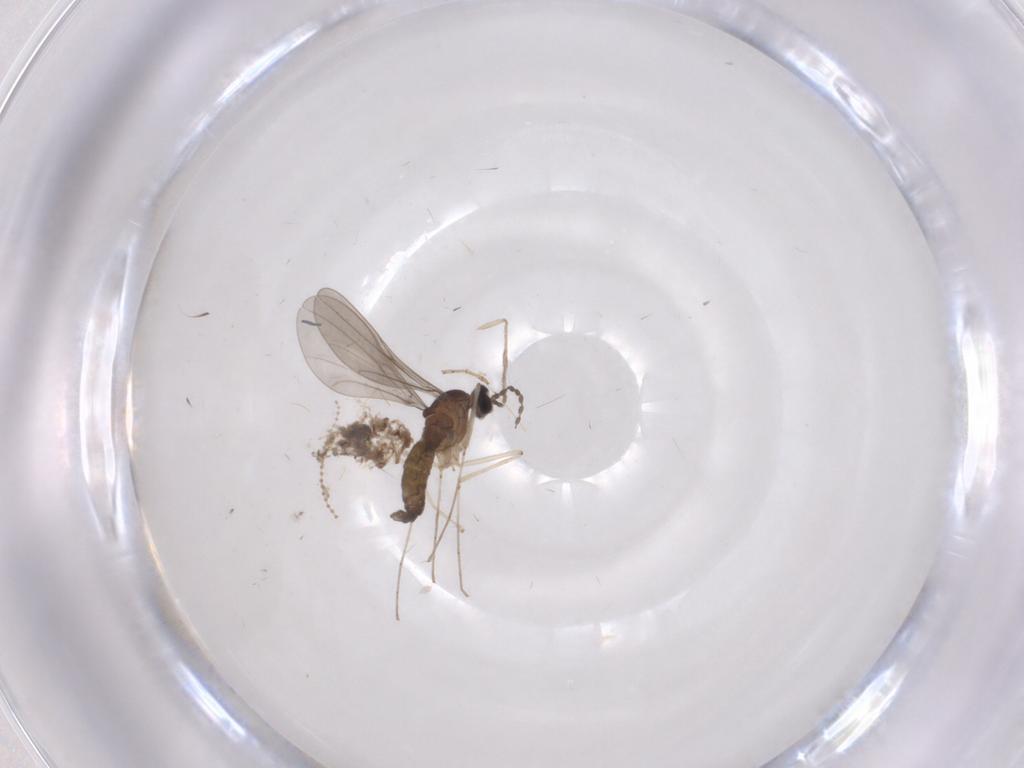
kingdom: Animalia
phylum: Arthropoda
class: Insecta
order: Diptera
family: Cecidomyiidae
